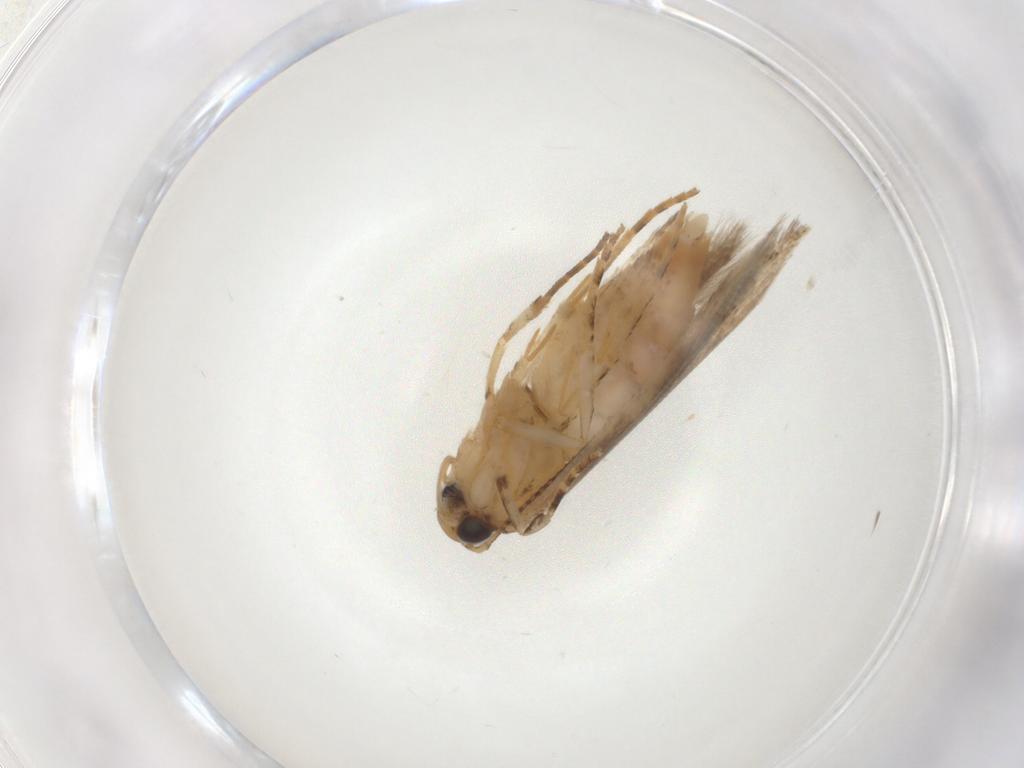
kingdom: Animalia
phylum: Arthropoda
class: Insecta
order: Lepidoptera
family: Gelechiidae
